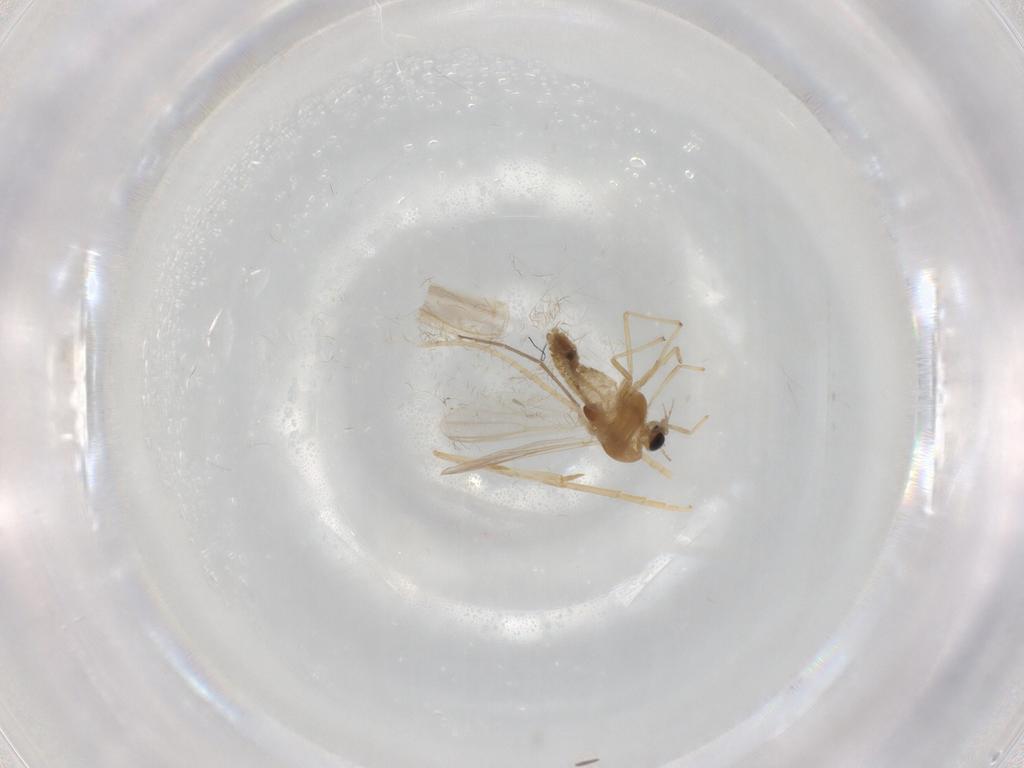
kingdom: Animalia
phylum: Arthropoda
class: Insecta
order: Diptera
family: Chironomidae
